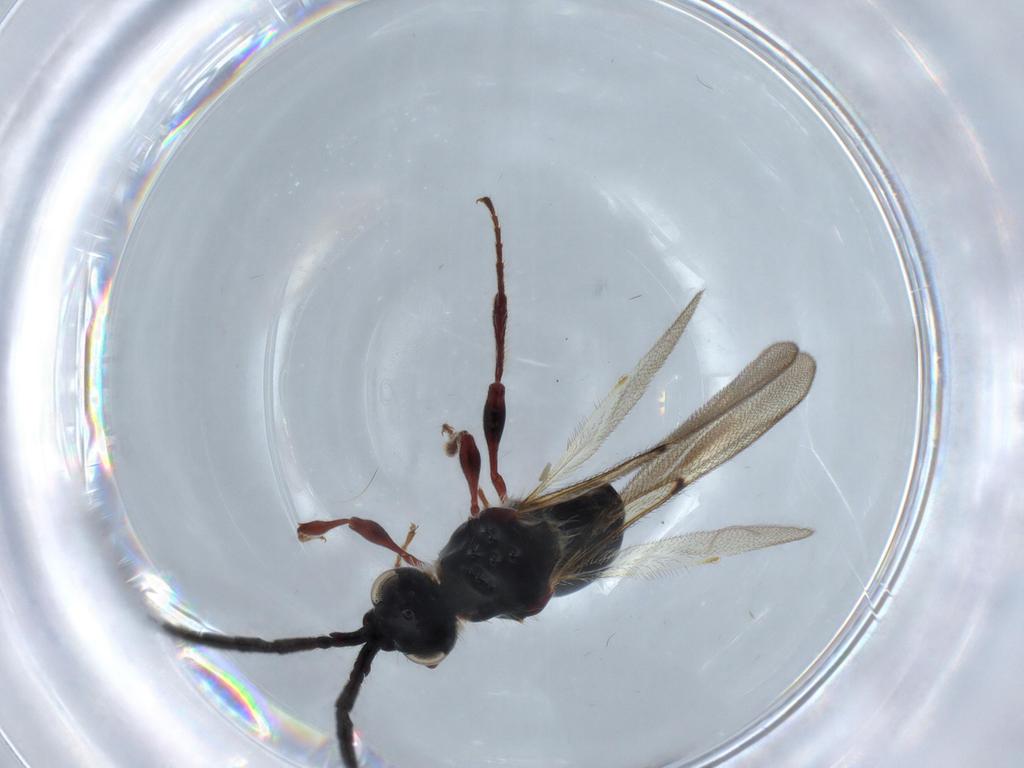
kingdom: Animalia
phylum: Arthropoda
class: Insecta
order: Hymenoptera
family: Diapriidae
